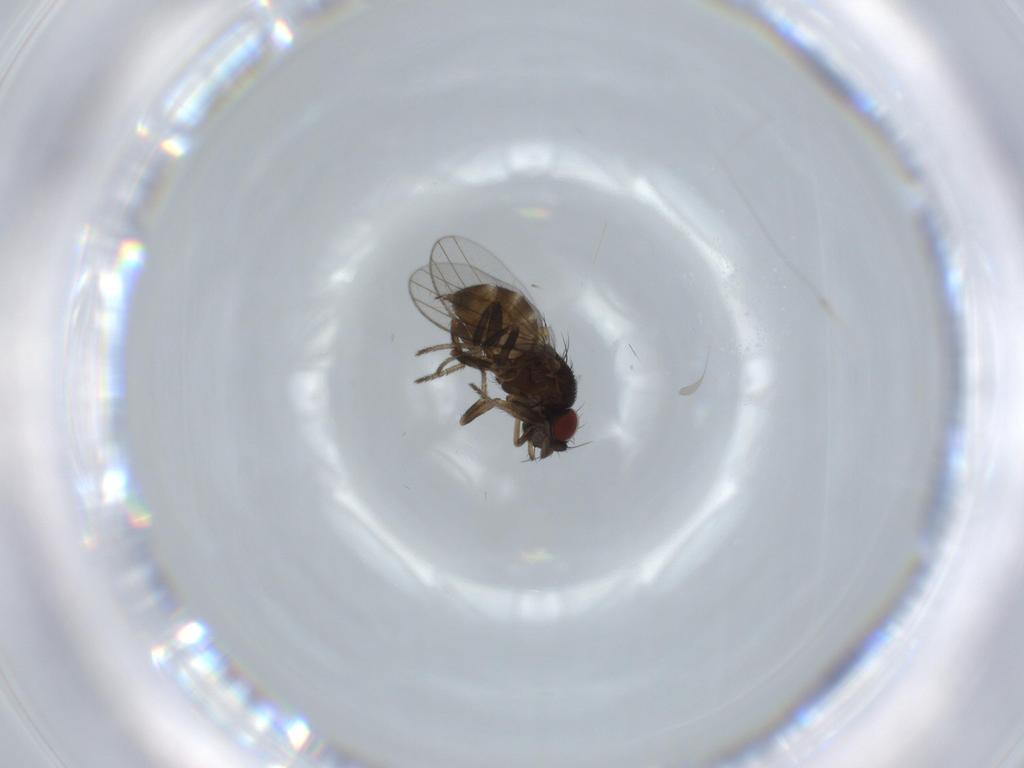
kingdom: Animalia
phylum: Arthropoda
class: Insecta
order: Diptera
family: Milichiidae
